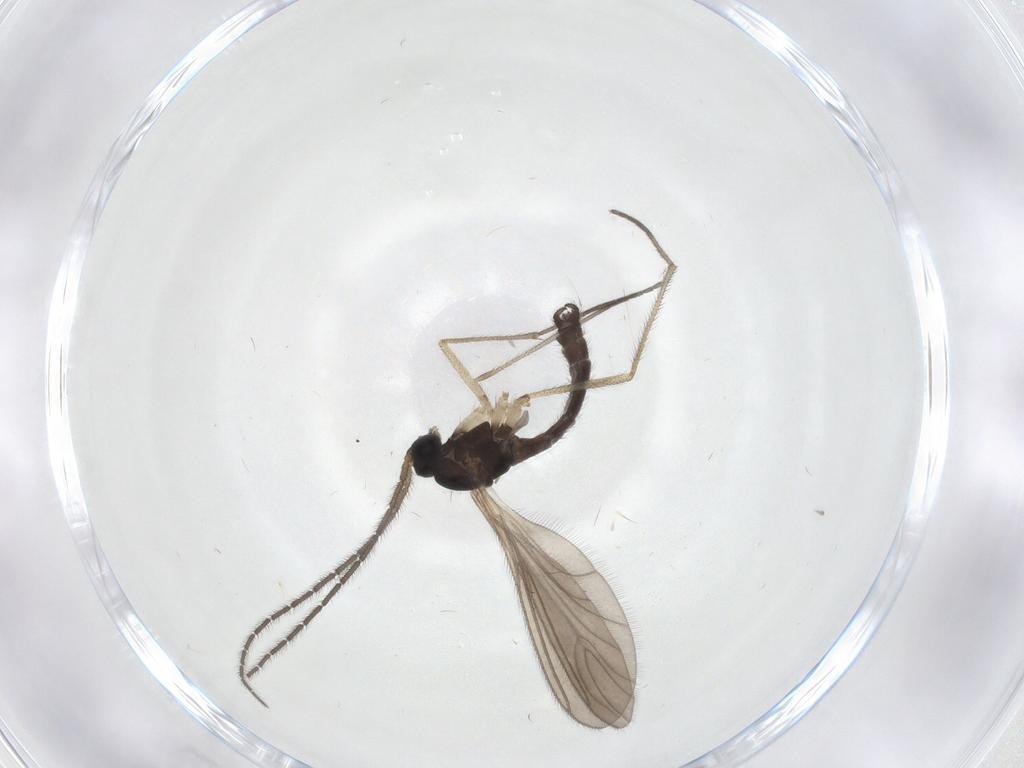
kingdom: Animalia
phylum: Arthropoda
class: Insecta
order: Diptera
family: Sciaridae
